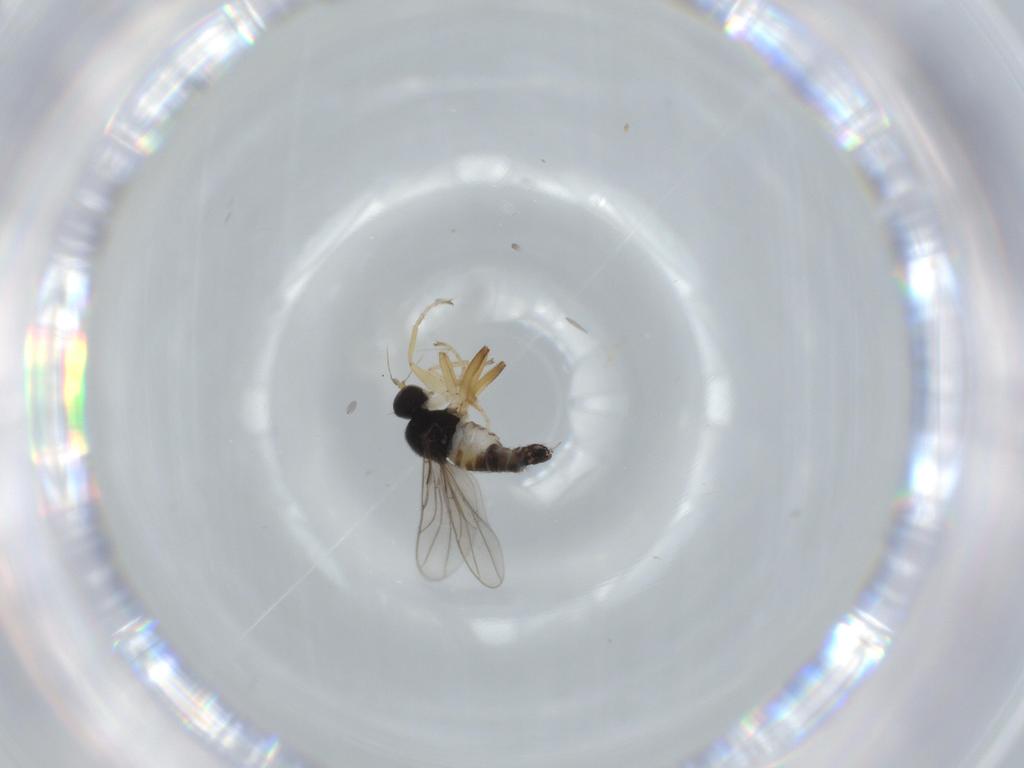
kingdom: Animalia
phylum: Arthropoda
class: Insecta
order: Diptera
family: Hybotidae
